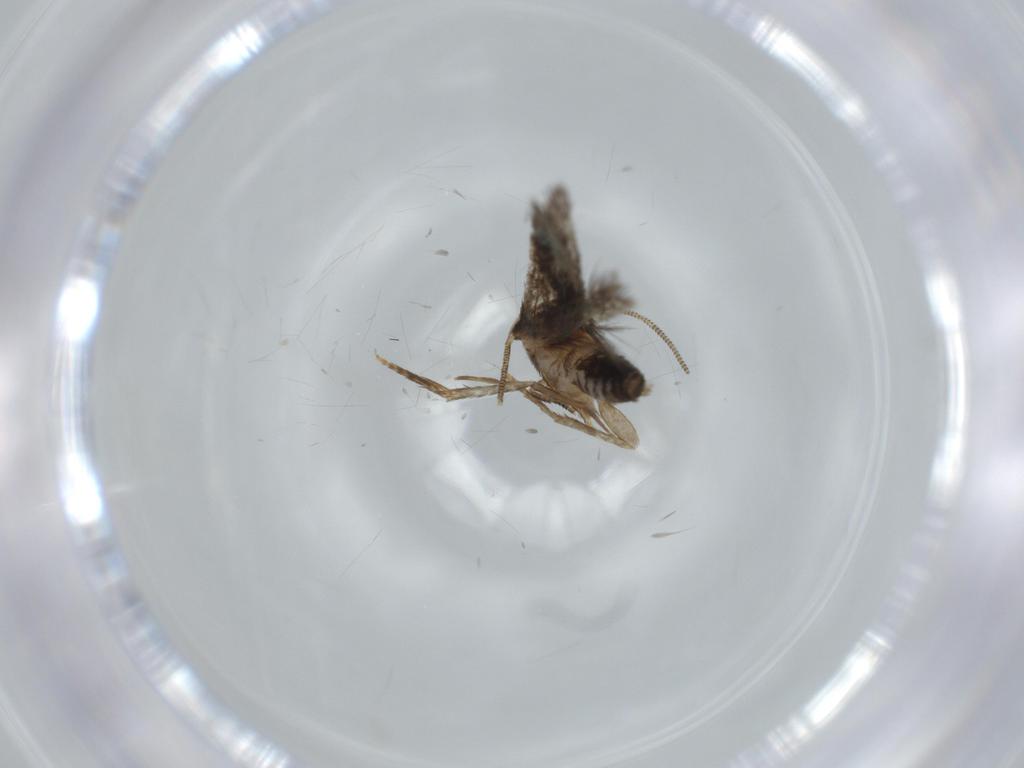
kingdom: Animalia
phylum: Arthropoda
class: Insecta
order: Lepidoptera
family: Nepticulidae
